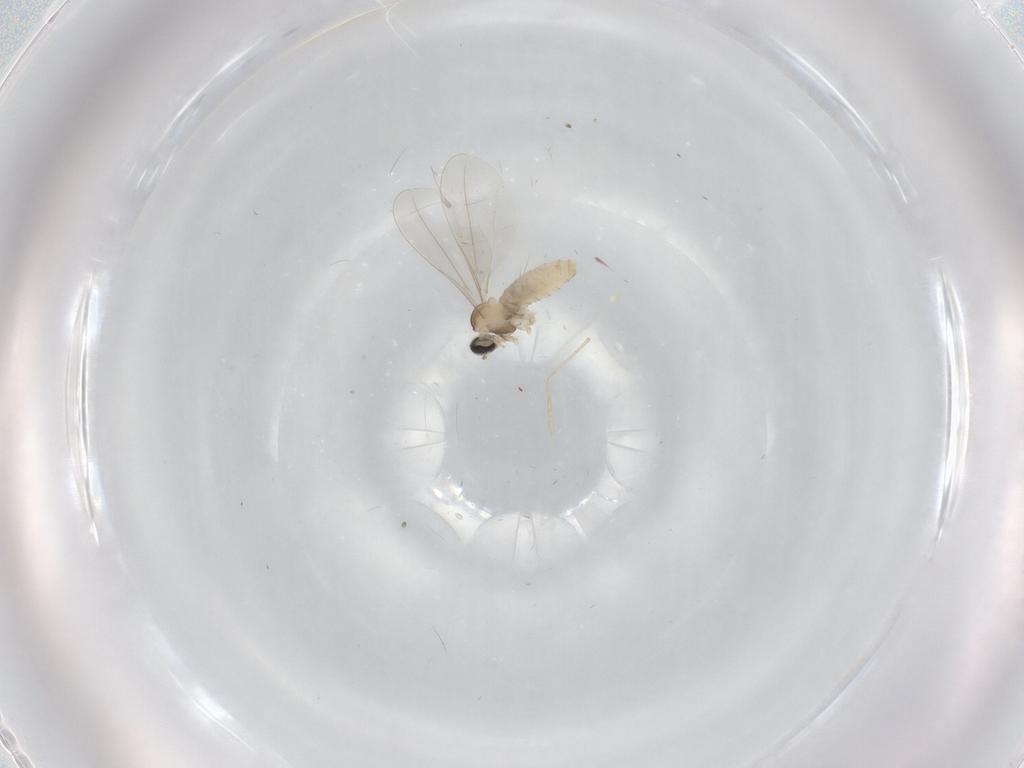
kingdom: Animalia
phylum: Arthropoda
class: Insecta
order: Diptera
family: Cecidomyiidae
